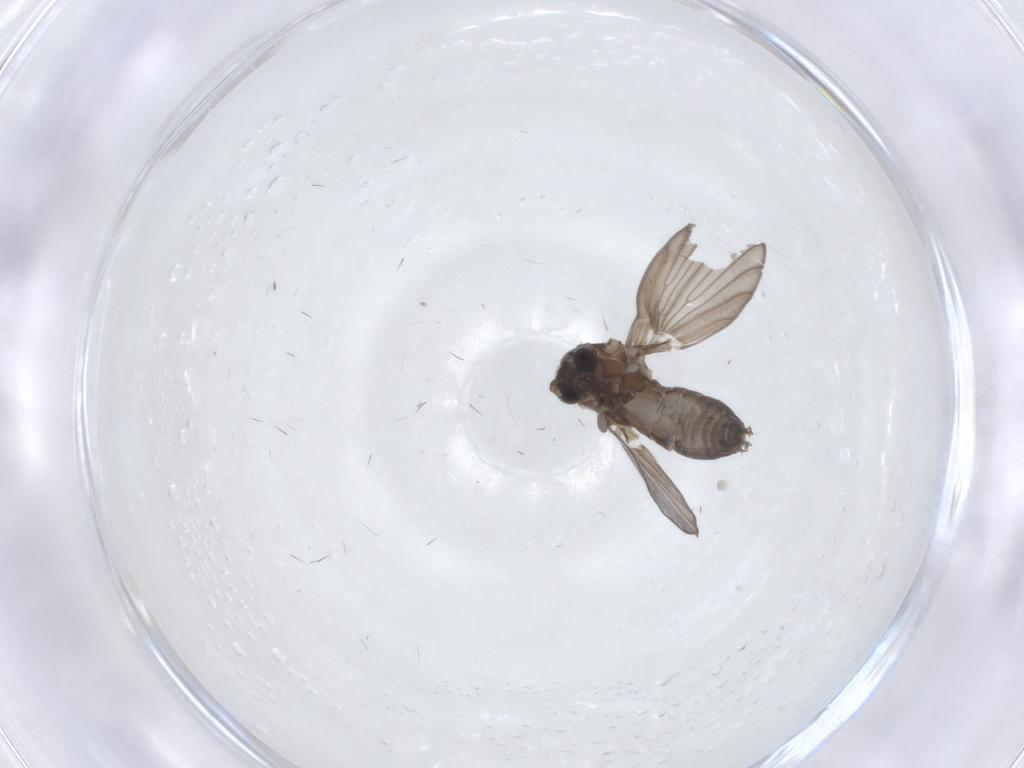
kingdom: Animalia
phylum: Arthropoda
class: Insecta
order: Diptera
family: Psychodidae
